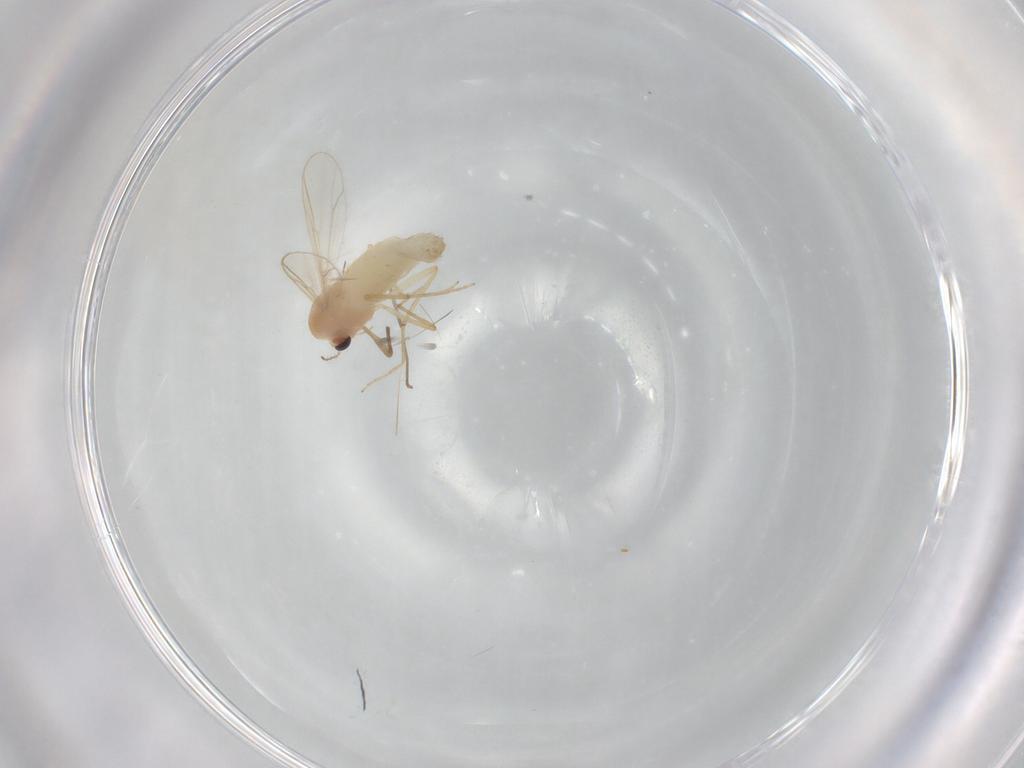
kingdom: Animalia
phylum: Arthropoda
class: Insecta
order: Diptera
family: Chironomidae
